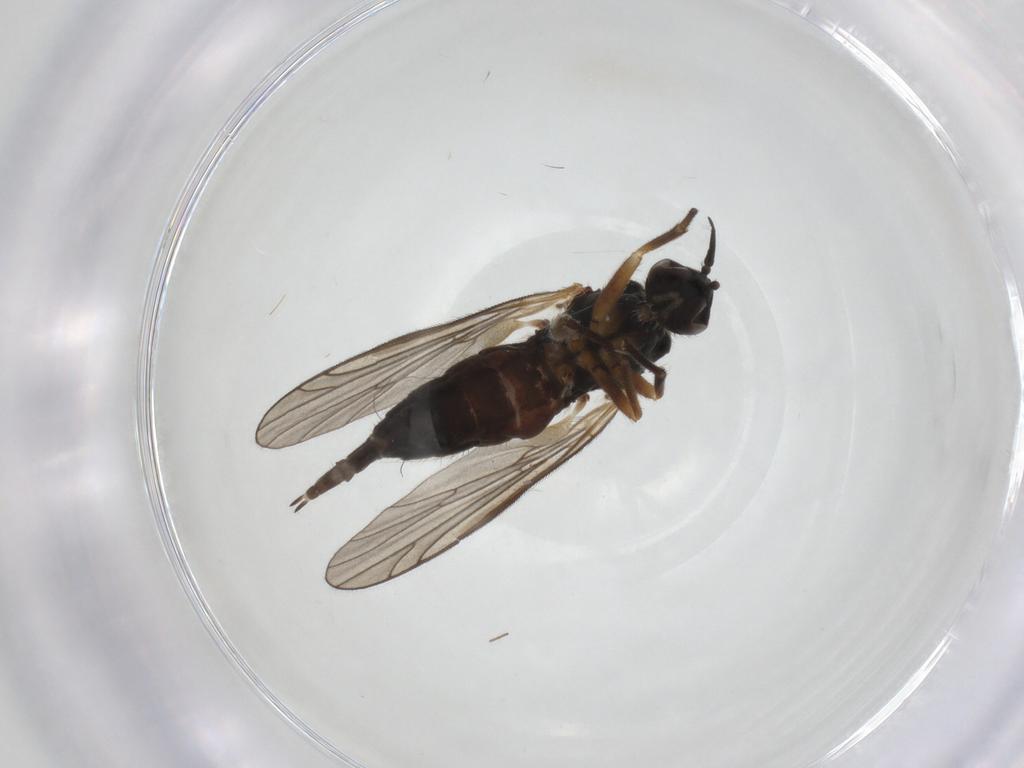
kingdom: Animalia
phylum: Arthropoda
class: Insecta
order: Diptera
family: Empididae
